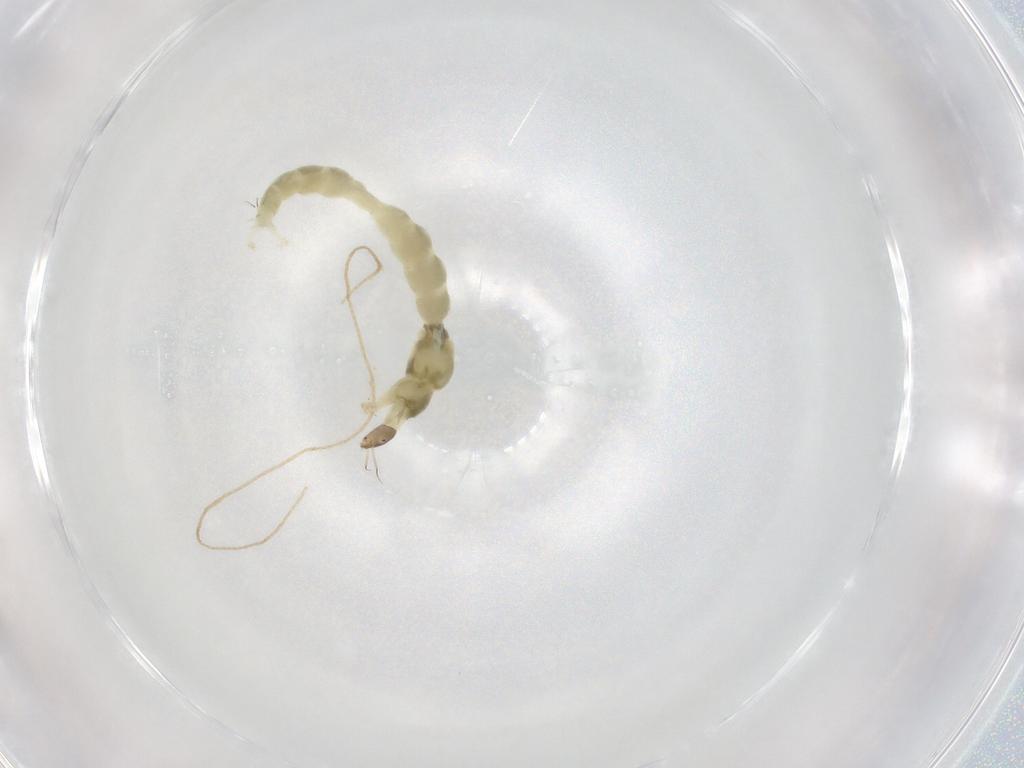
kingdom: Animalia
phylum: Arthropoda
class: Insecta
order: Diptera
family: Chironomidae
